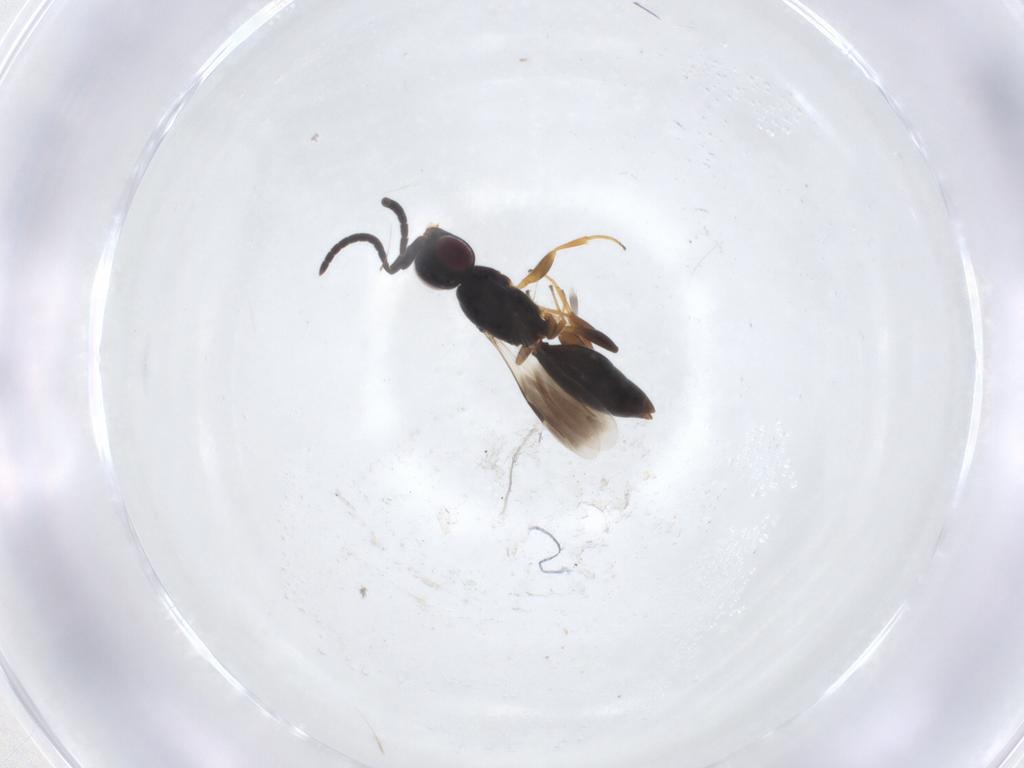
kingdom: Animalia
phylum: Arthropoda
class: Insecta
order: Hymenoptera
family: Megaspilidae
